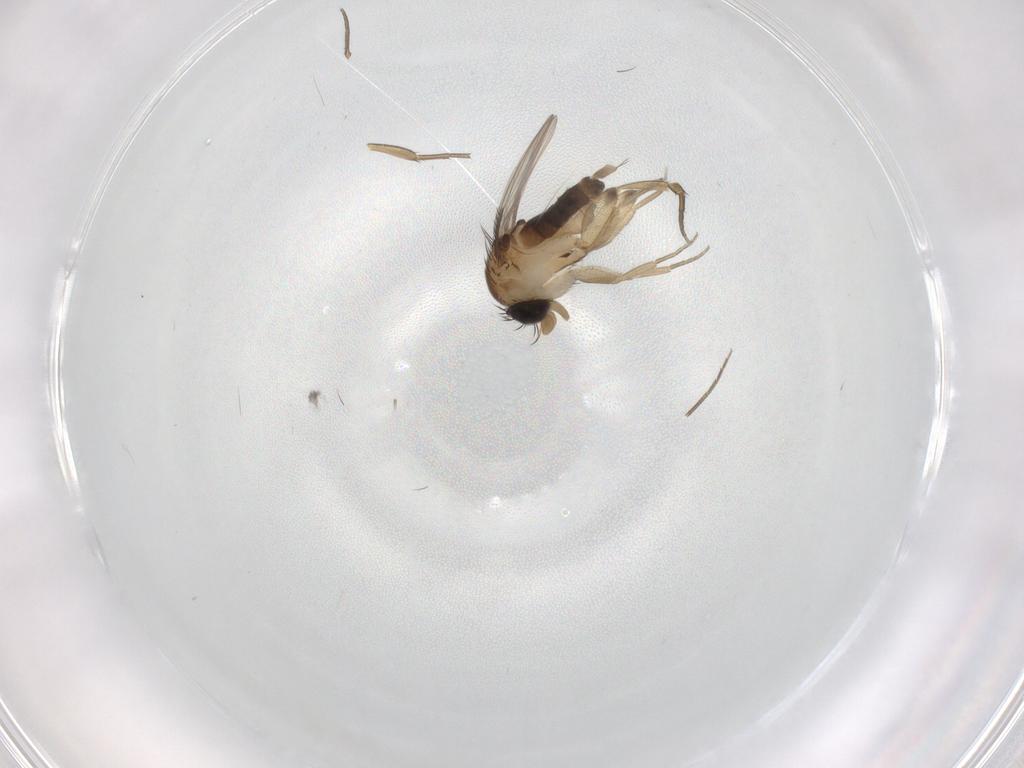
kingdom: Animalia
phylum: Arthropoda
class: Insecta
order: Diptera
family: Phoridae
